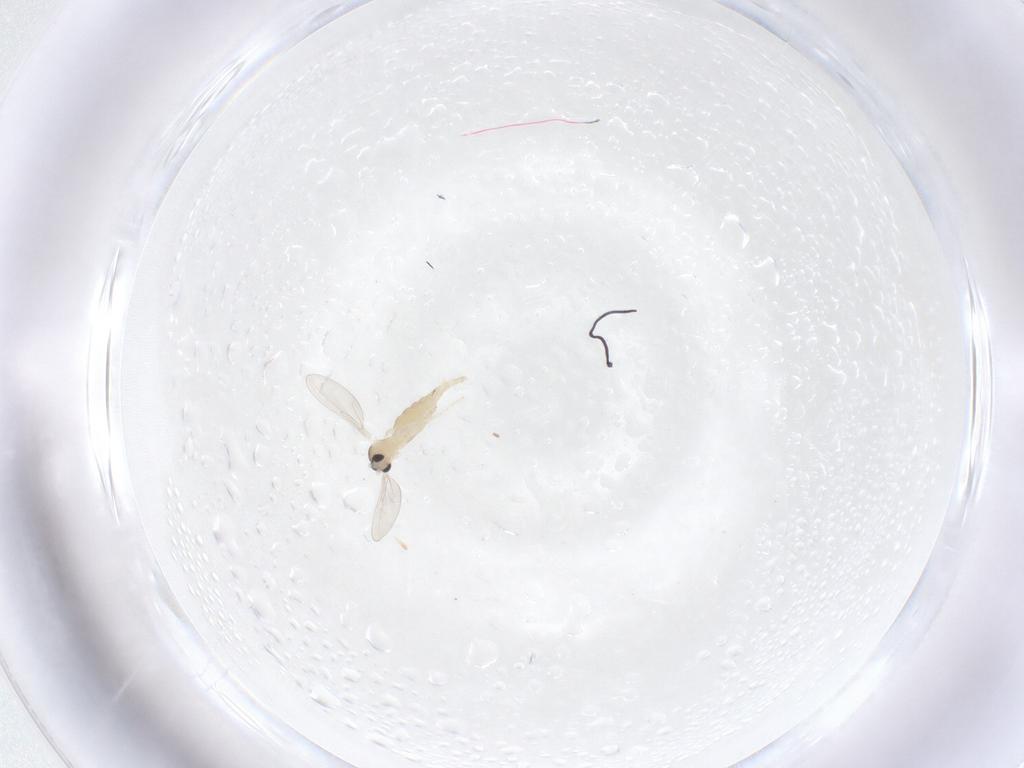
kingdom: Animalia
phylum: Arthropoda
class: Insecta
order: Diptera
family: Cecidomyiidae
